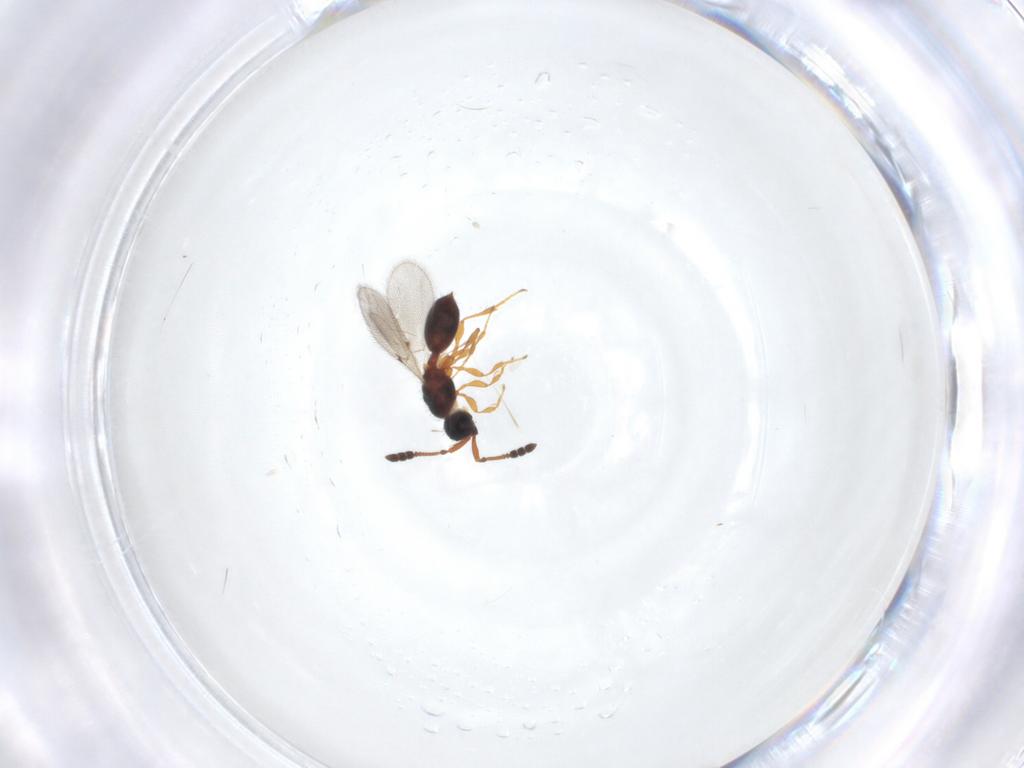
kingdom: Animalia
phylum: Arthropoda
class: Insecta
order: Hymenoptera
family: Diapriidae
